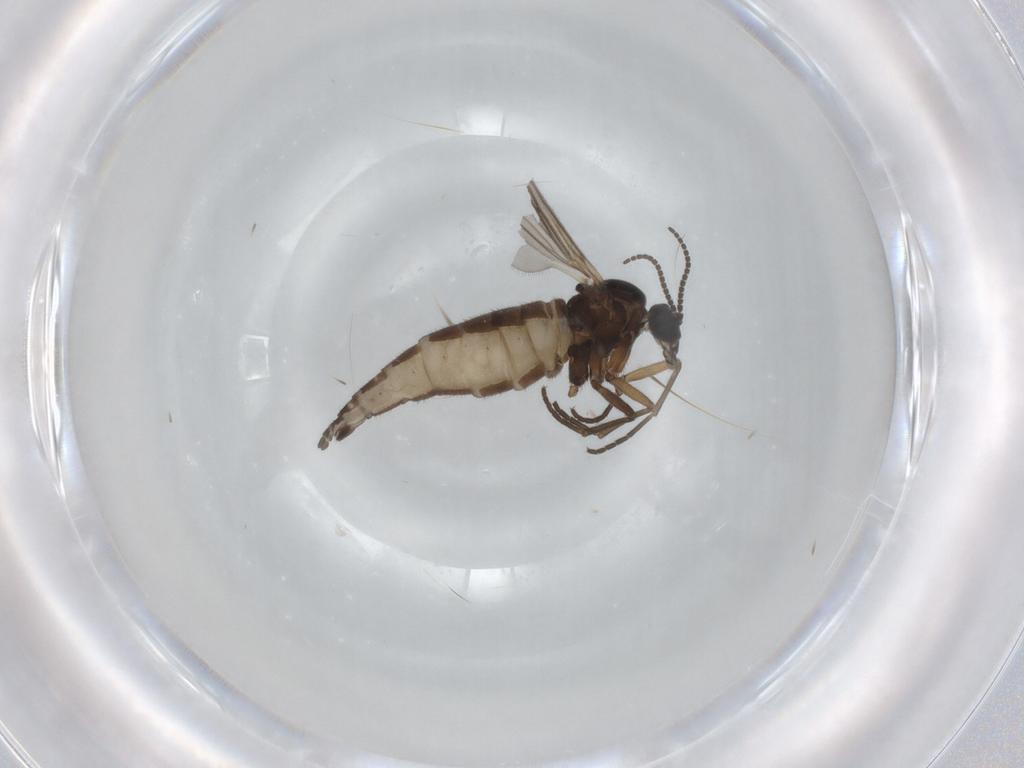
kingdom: Animalia
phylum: Arthropoda
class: Insecta
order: Diptera
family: Sciaridae
